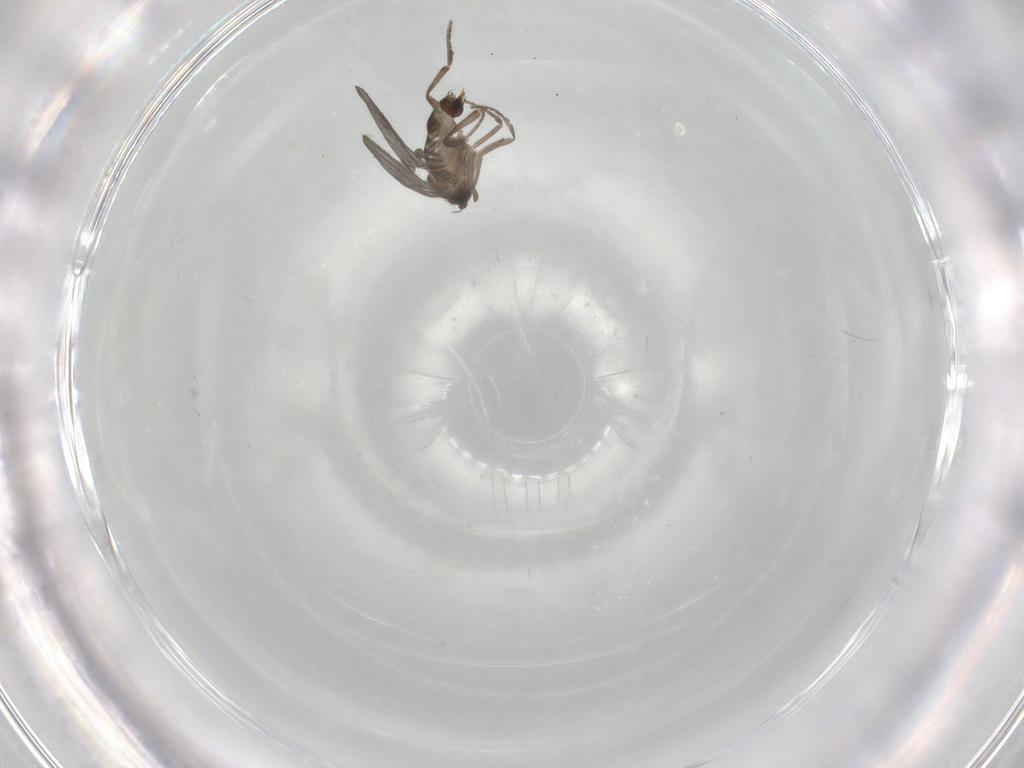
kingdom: Animalia
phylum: Arthropoda
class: Insecta
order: Diptera
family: Phoridae
